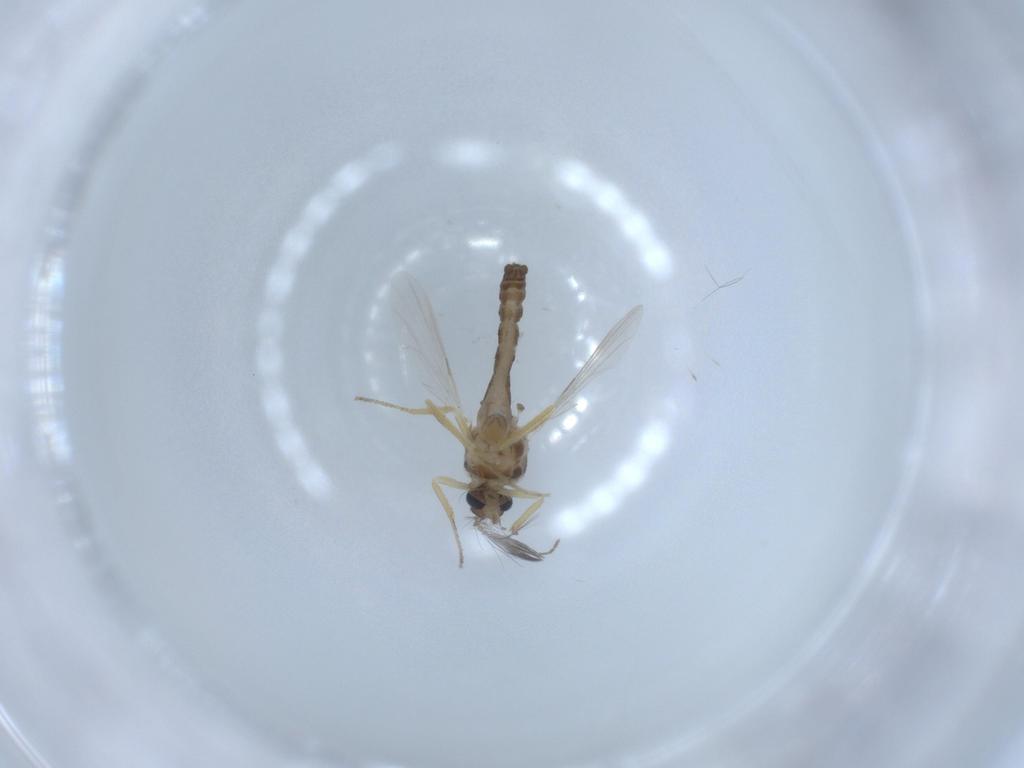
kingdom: Animalia
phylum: Arthropoda
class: Insecta
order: Diptera
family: Ceratopogonidae
